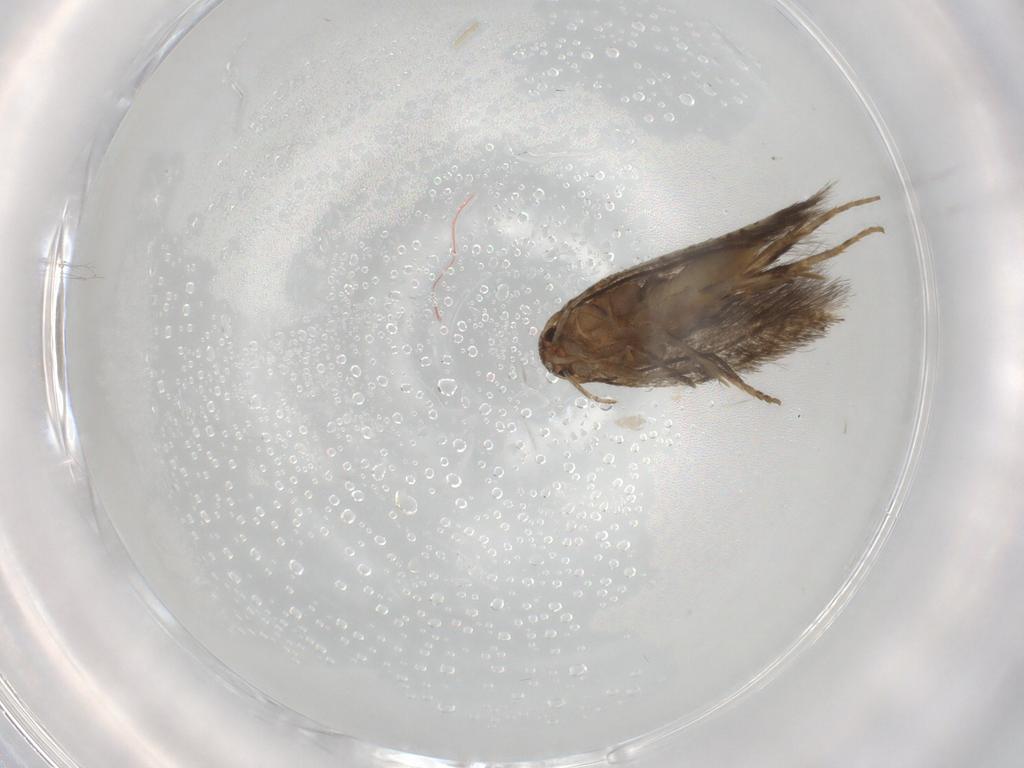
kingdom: Animalia
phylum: Arthropoda
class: Insecta
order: Lepidoptera
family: Elachistidae
